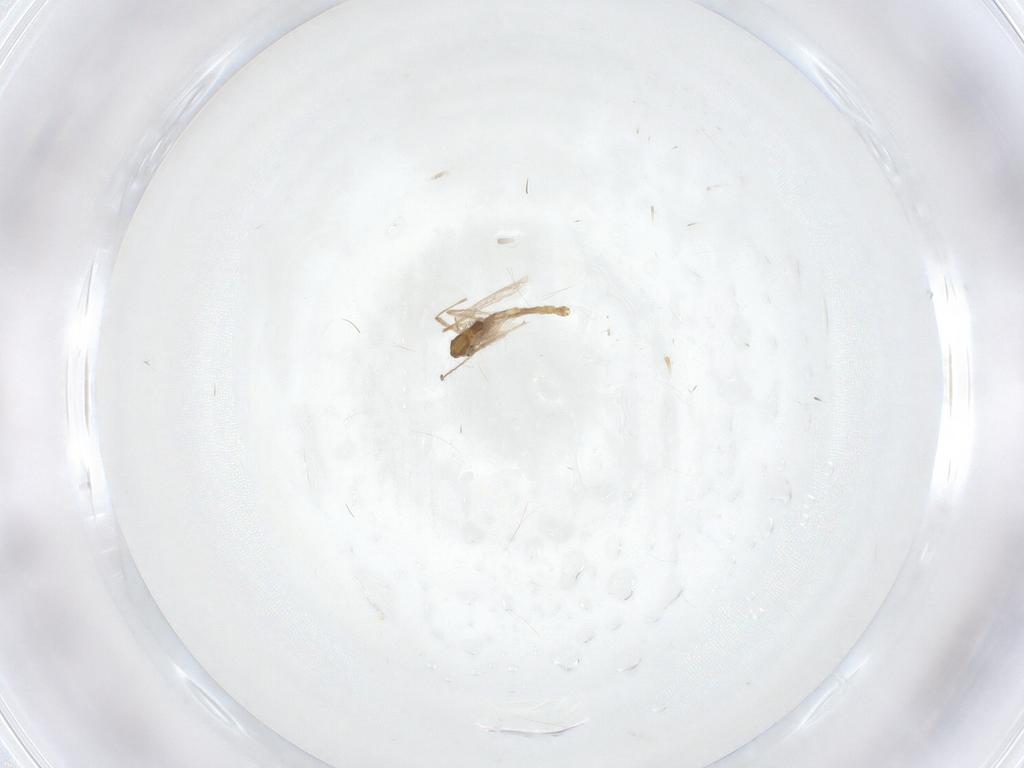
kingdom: Animalia
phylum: Arthropoda
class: Insecta
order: Diptera
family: Chironomidae
